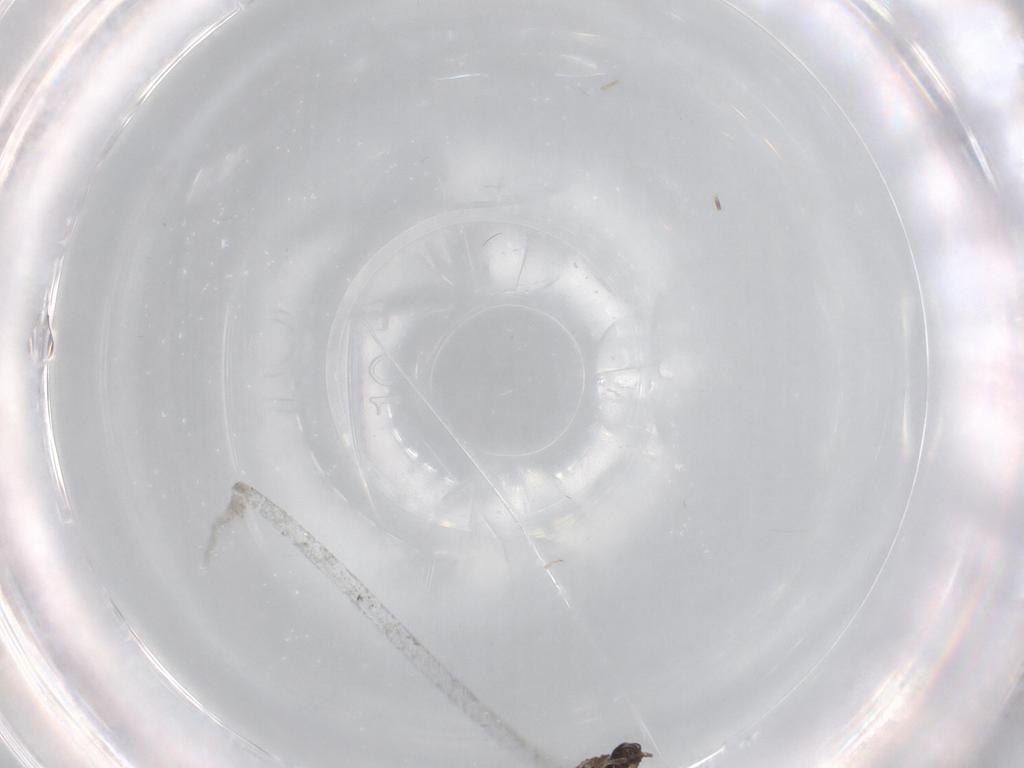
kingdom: Animalia
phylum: Arthropoda
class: Insecta
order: Diptera
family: Cecidomyiidae
